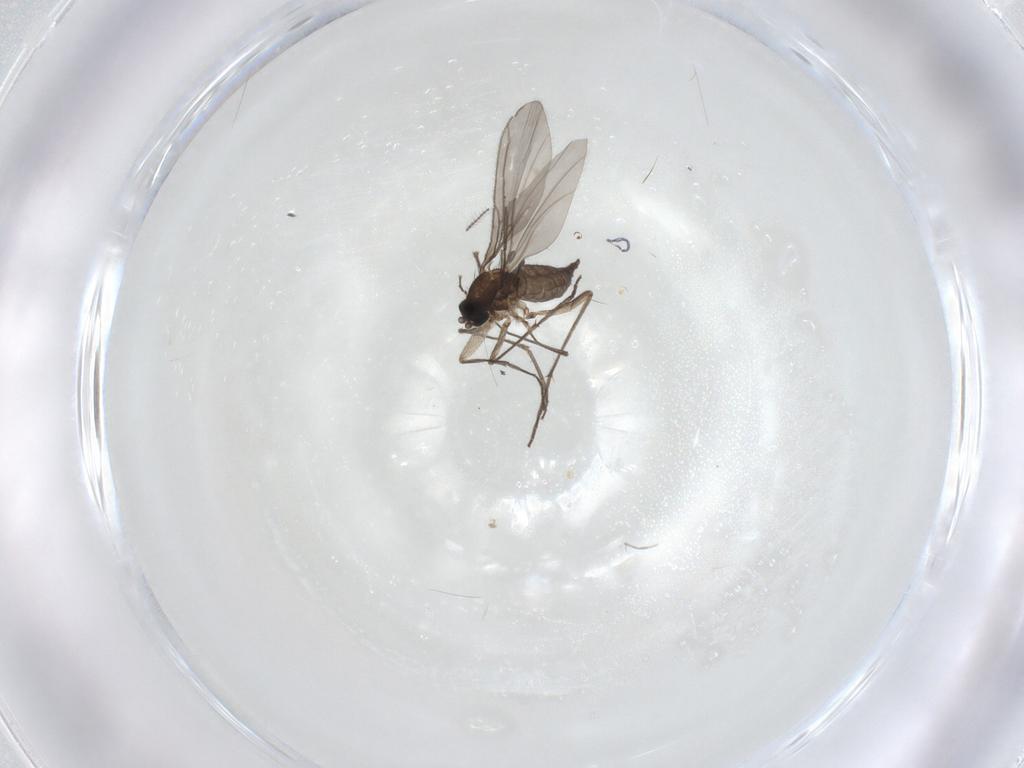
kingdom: Animalia
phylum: Arthropoda
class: Insecta
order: Diptera
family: Sciaridae
